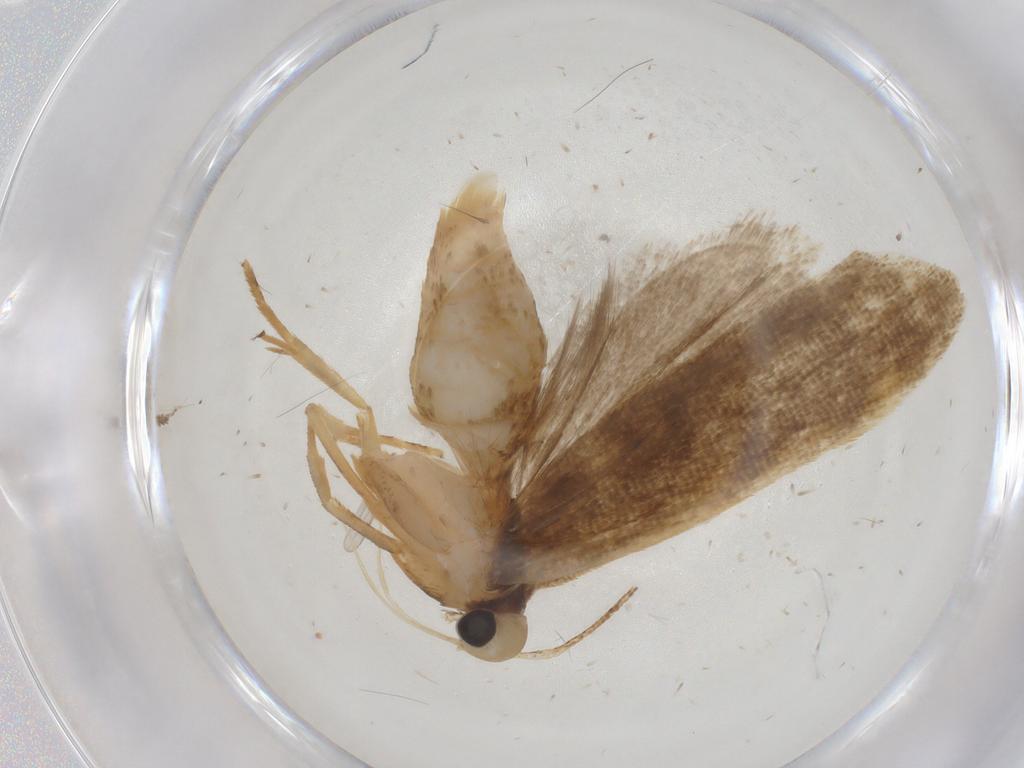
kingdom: Animalia
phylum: Arthropoda
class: Insecta
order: Lepidoptera
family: Gelechiidae
